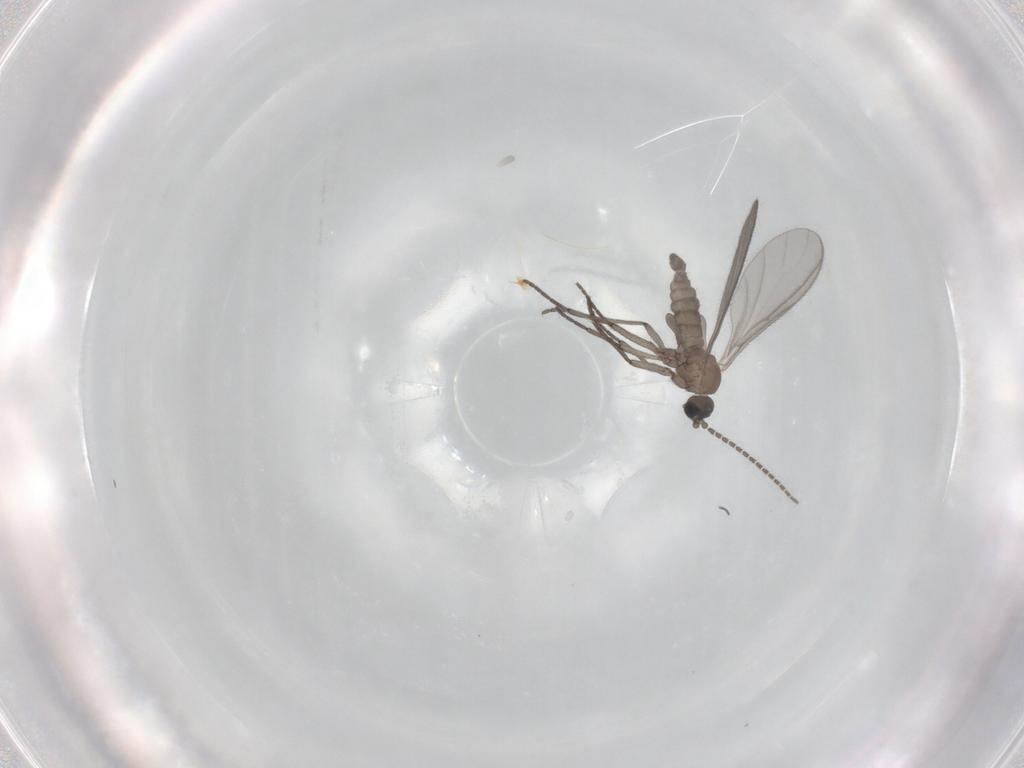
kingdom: Animalia
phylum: Arthropoda
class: Insecta
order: Diptera
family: Sciaridae
